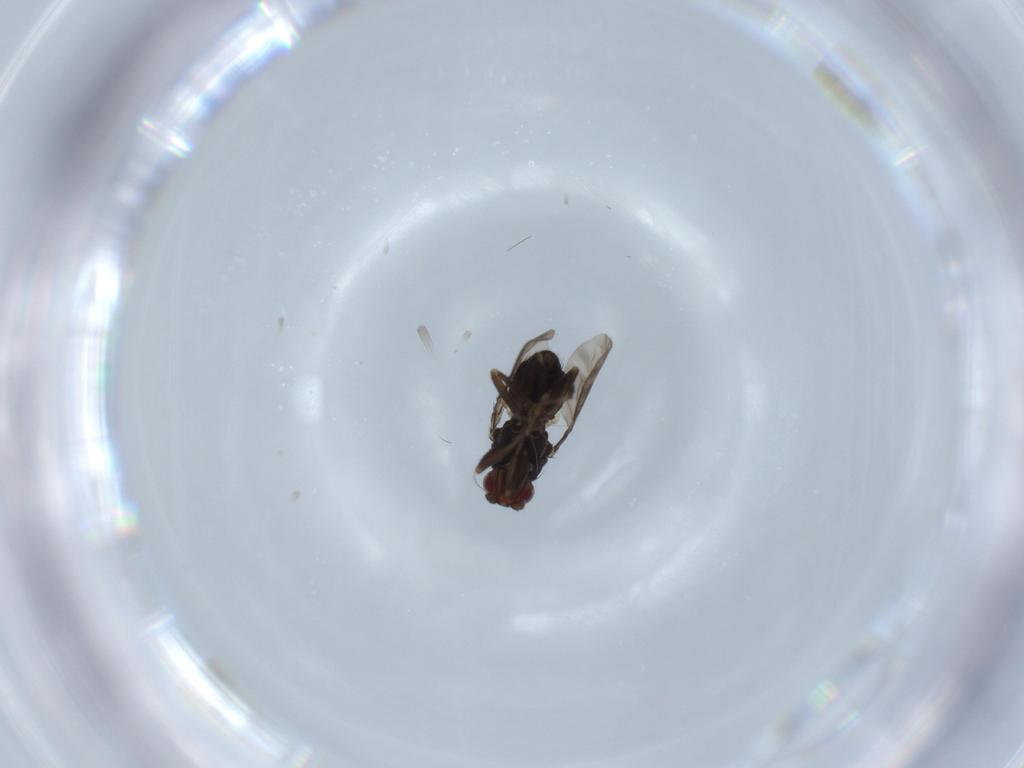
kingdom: Animalia
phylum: Arthropoda
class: Insecta
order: Diptera
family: Sphaeroceridae
